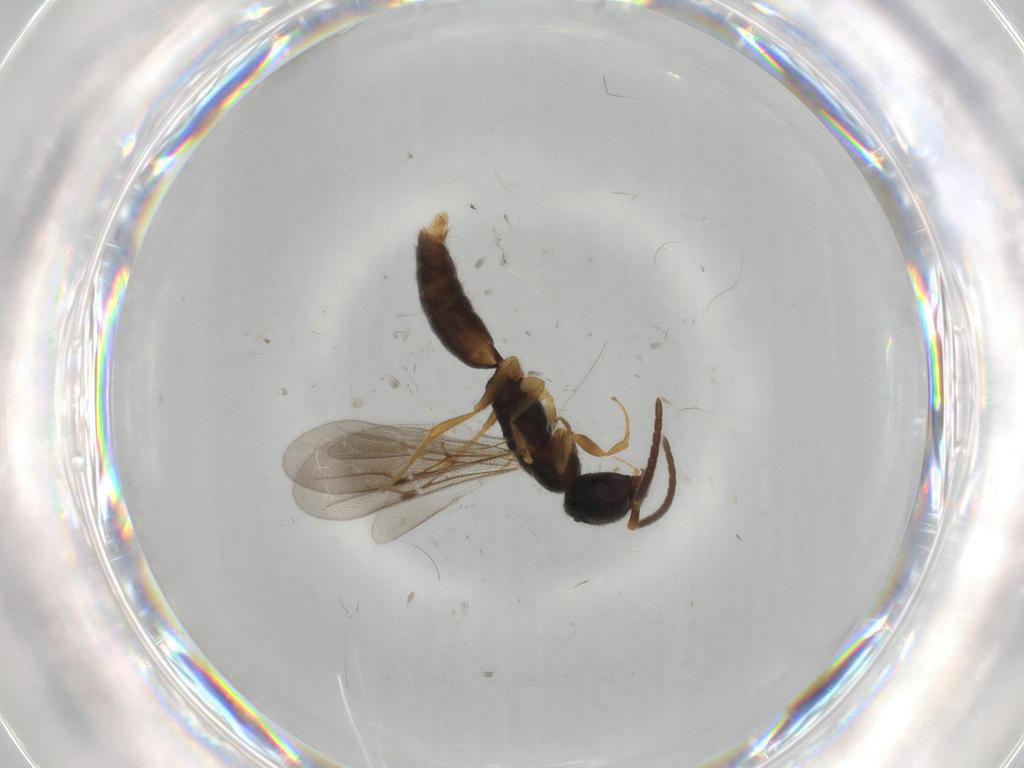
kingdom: Animalia
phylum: Arthropoda
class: Insecta
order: Hymenoptera
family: Bethylidae
